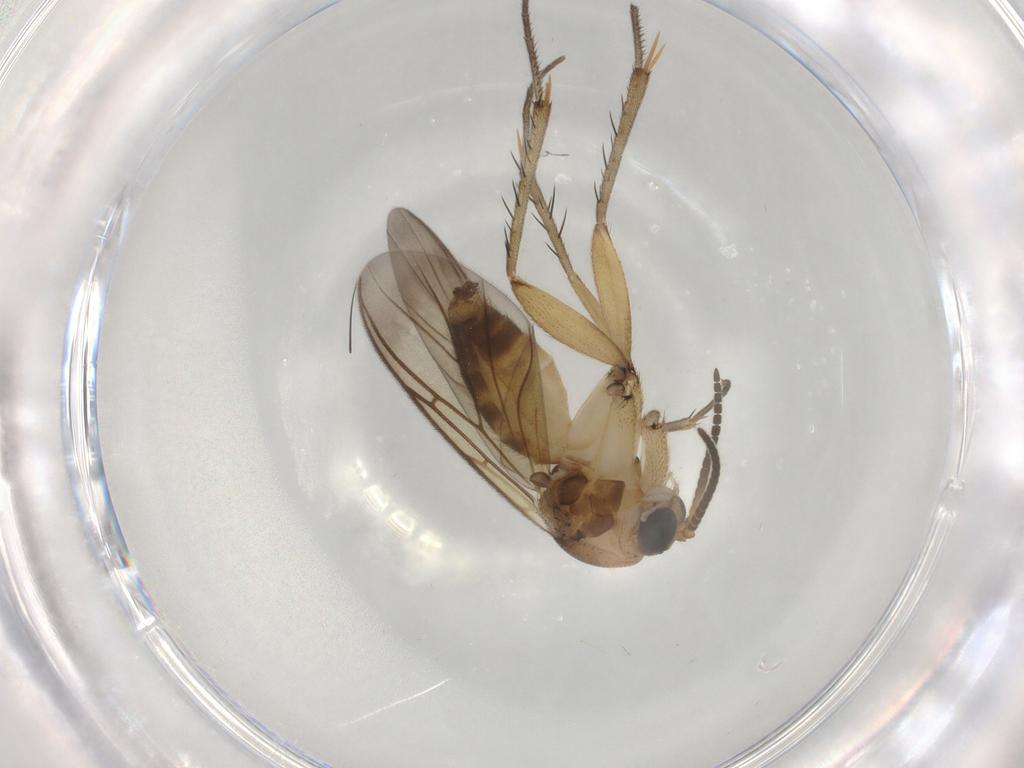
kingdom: Animalia
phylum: Arthropoda
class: Insecta
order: Diptera
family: Mycetophilidae
